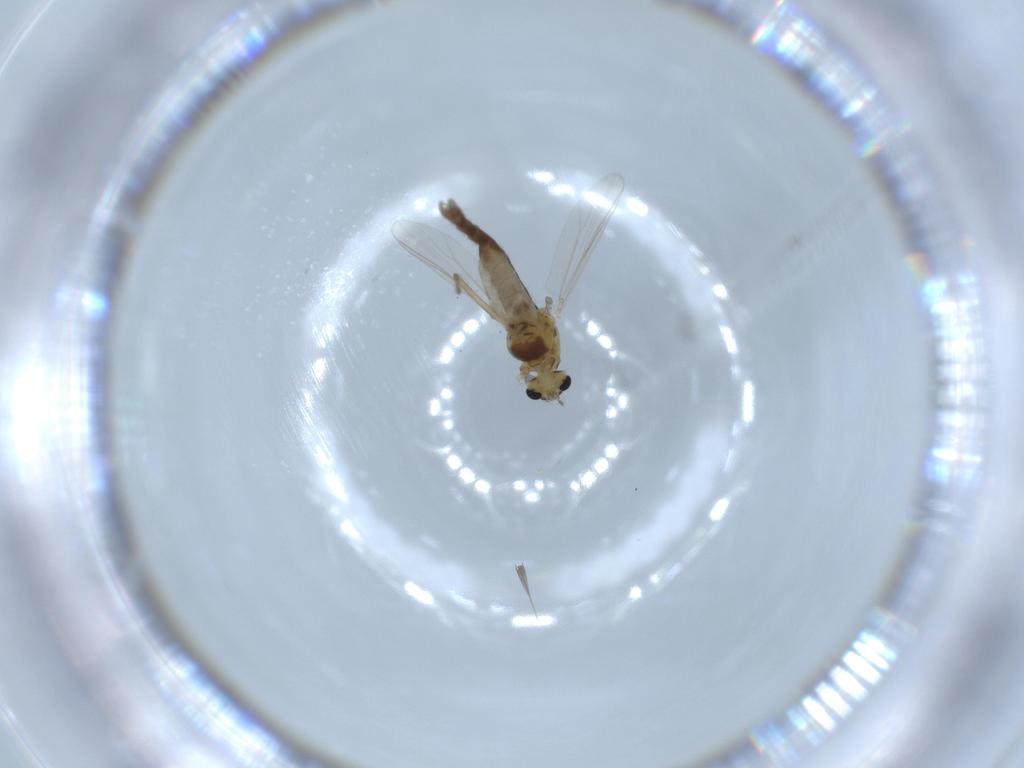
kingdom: Animalia
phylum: Arthropoda
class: Insecta
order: Diptera
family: Chironomidae
